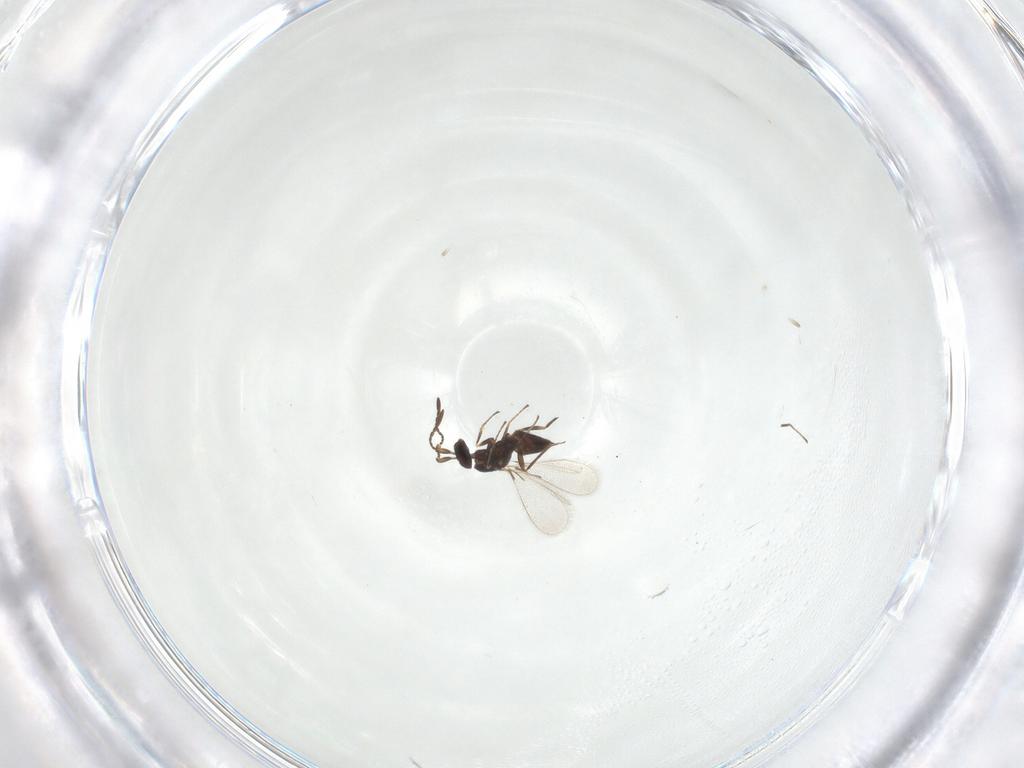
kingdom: Animalia
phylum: Arthropoda
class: Insecta
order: Hymenoptera
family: Mymaridae
